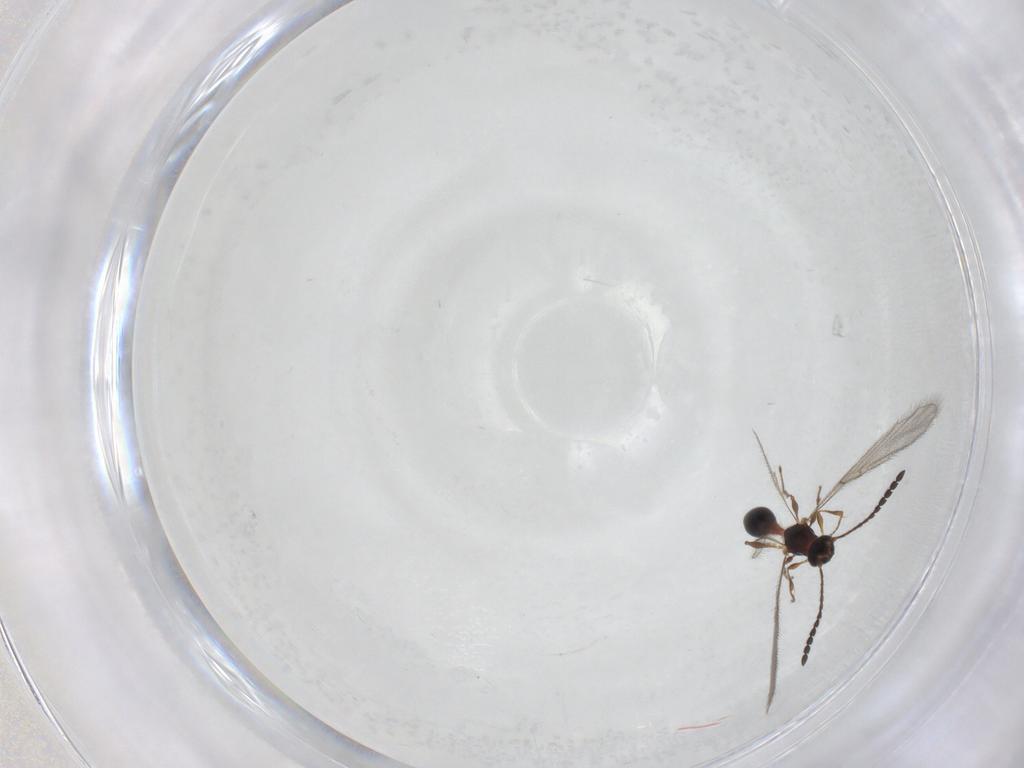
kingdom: Animalia
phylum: Arthropoda
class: Insecta
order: Hymenoptera
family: Diapriidae
